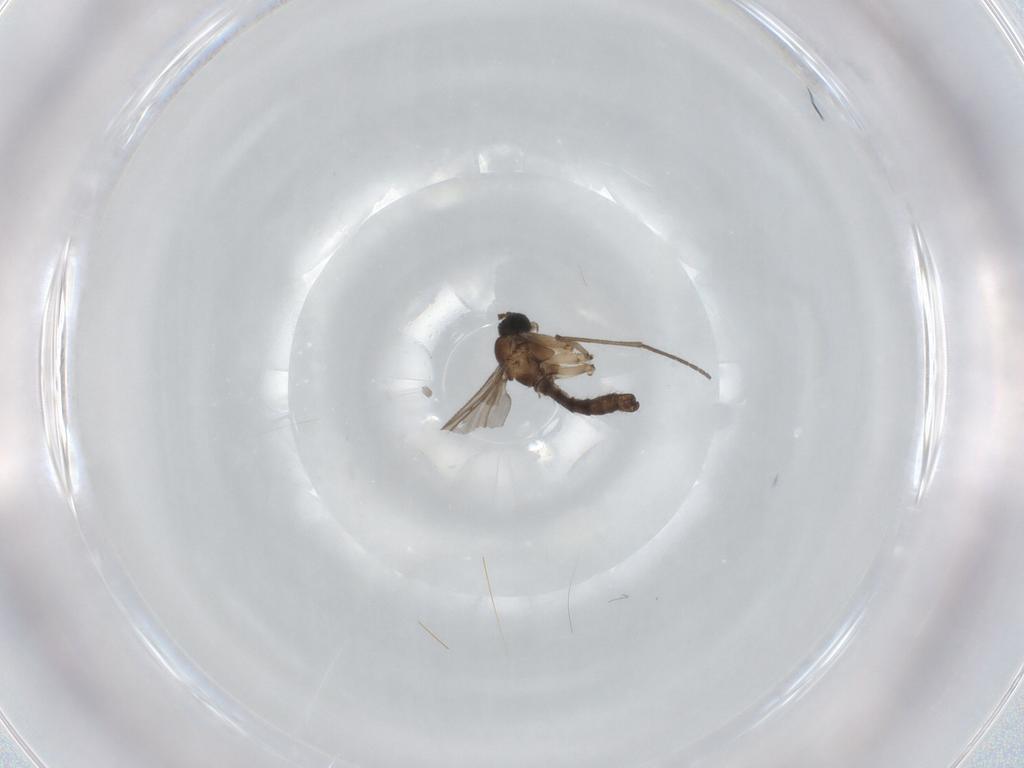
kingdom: Animalia
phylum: Arthropoda
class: Insecta
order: Diptera
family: Sciaridae
